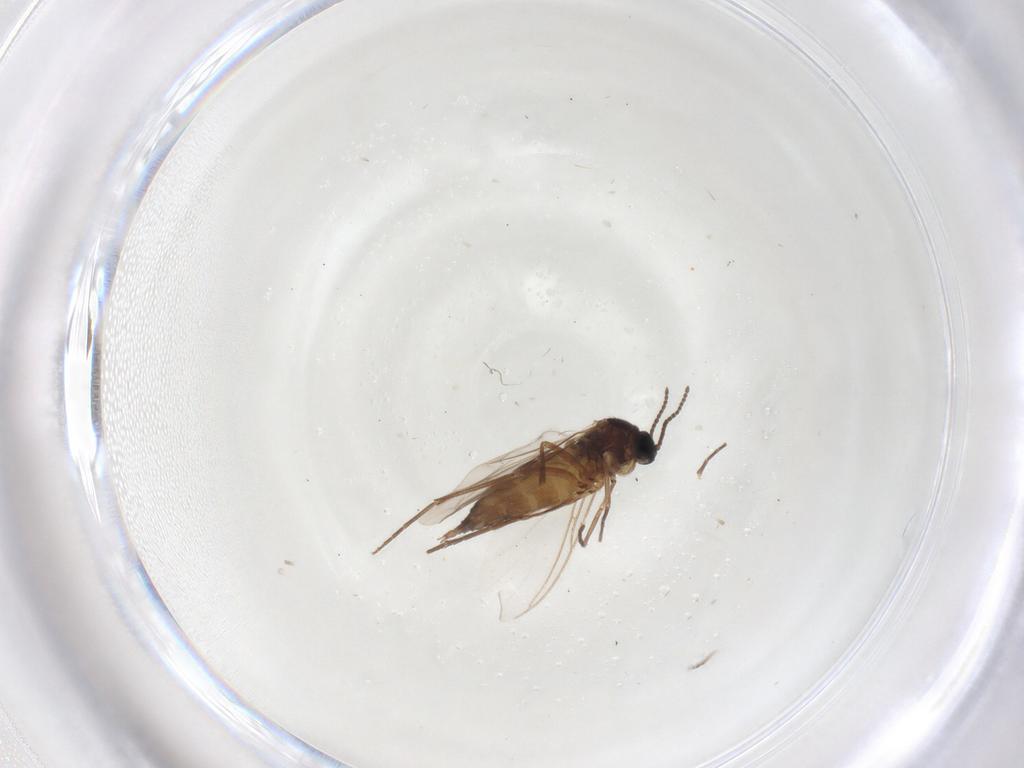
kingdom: Animalia
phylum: Arthropoda
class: Insecta
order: Diptera
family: Sciaridae
